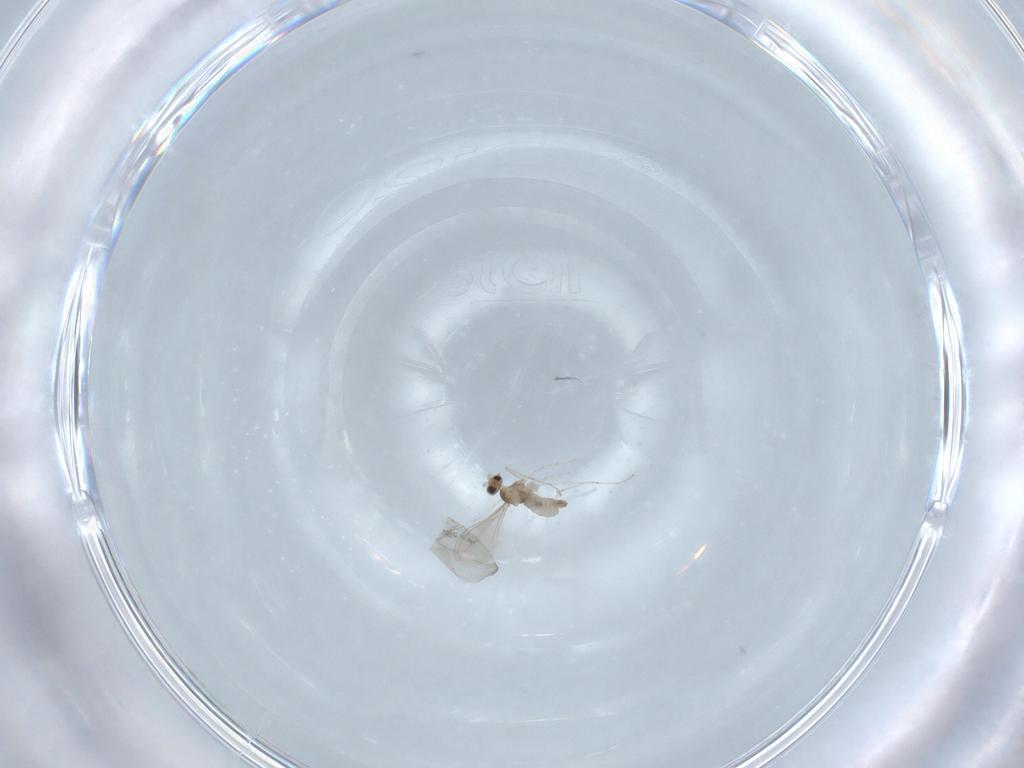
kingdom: Animalia
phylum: Arthropoda
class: Insecta
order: Diptera
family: Cecidomyiidae
